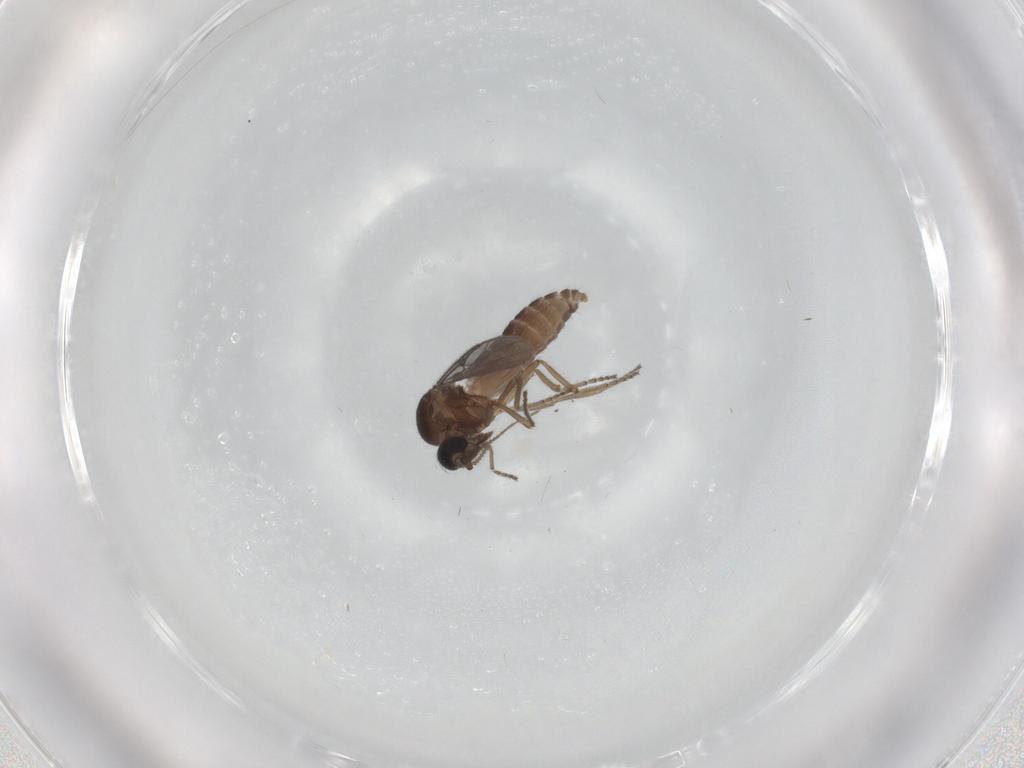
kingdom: Animalia
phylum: Arthropoda
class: Insecta
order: Diptera
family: Ceratopogonidae
